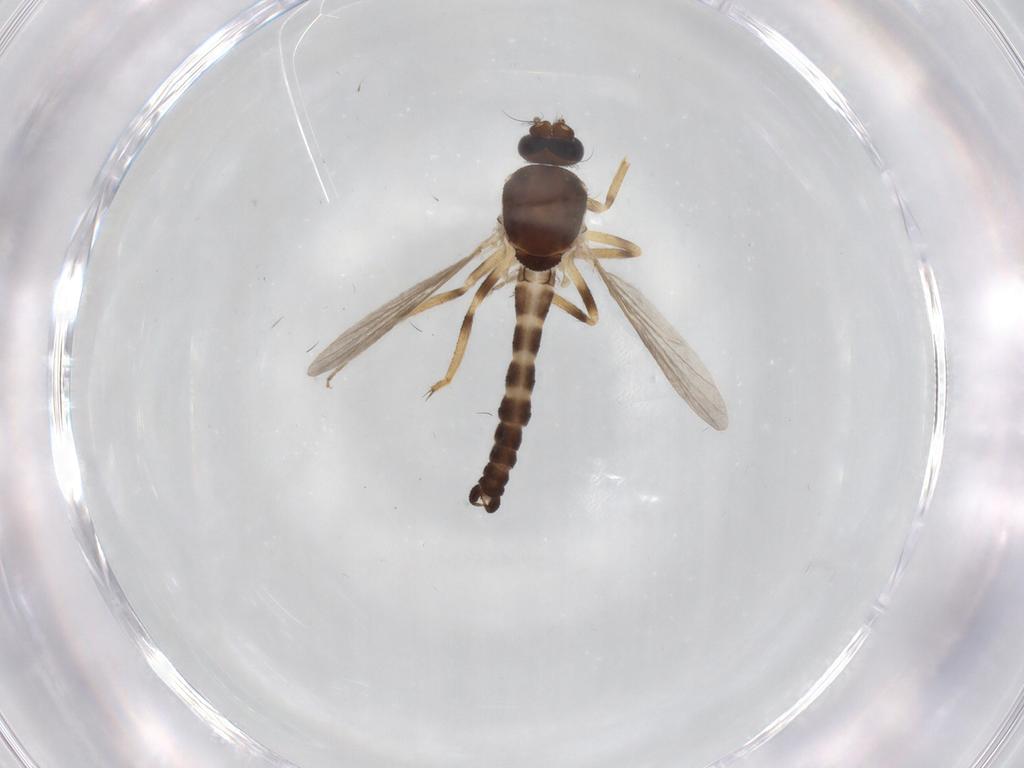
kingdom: Animalia
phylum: Arthropoda
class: Insecta
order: Diptera
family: Ceratopogonidae
